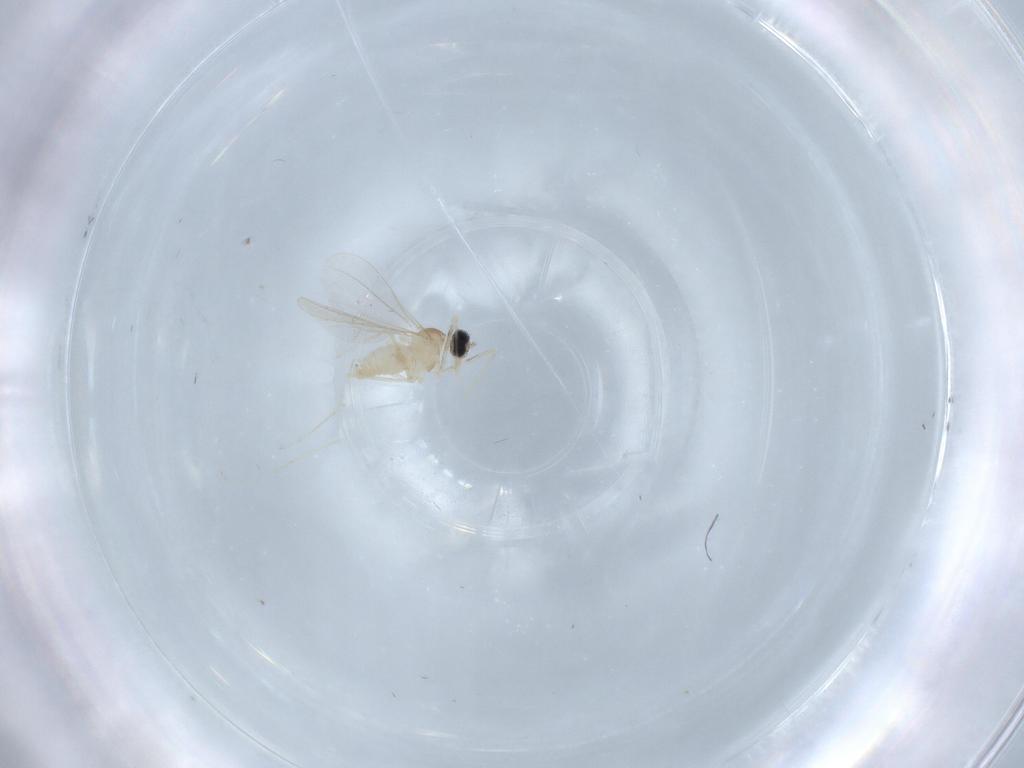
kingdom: Animalia
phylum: Arthropoda
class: Insecta
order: Diptera
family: Cecidomyiidae
